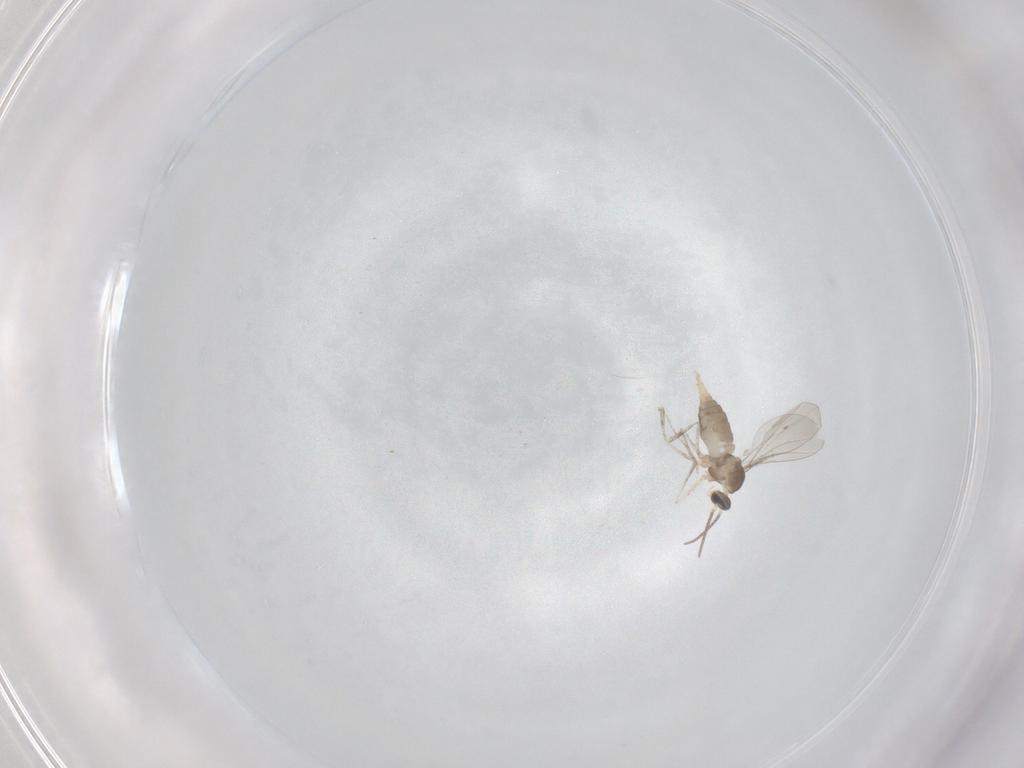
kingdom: Animalia
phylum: Arthropoda
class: Insecta
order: Diptera
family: Cecidomyiidae
